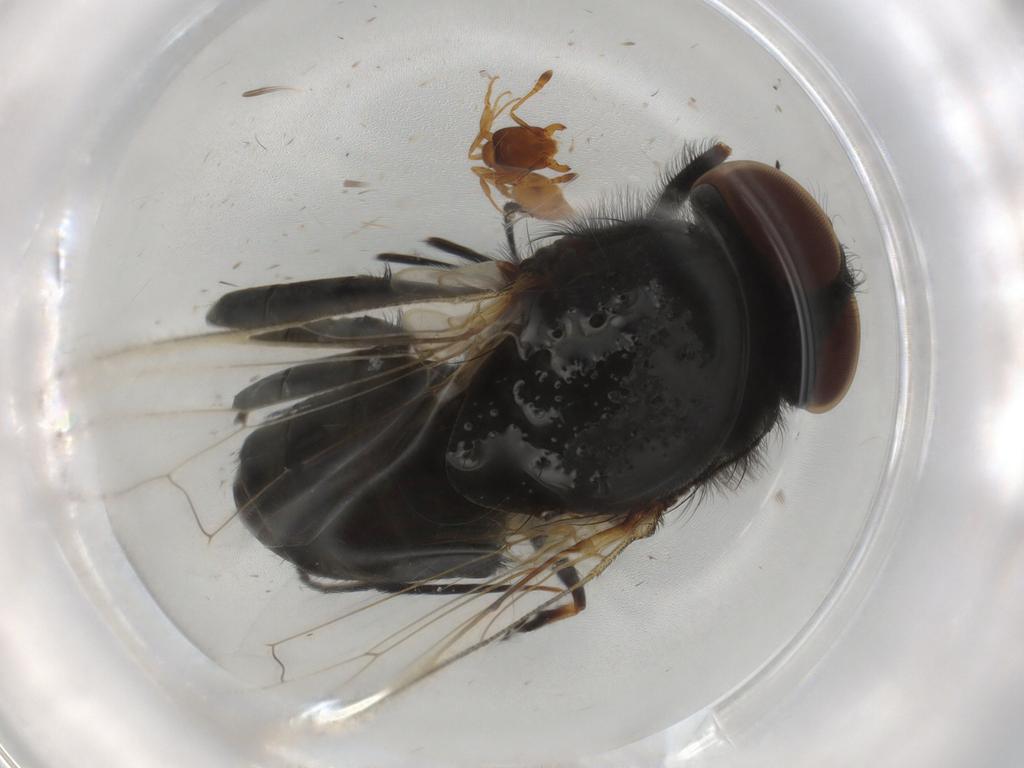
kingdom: Animalia
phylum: Arthropoda
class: Insecta
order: Diptera
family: Muscidae
